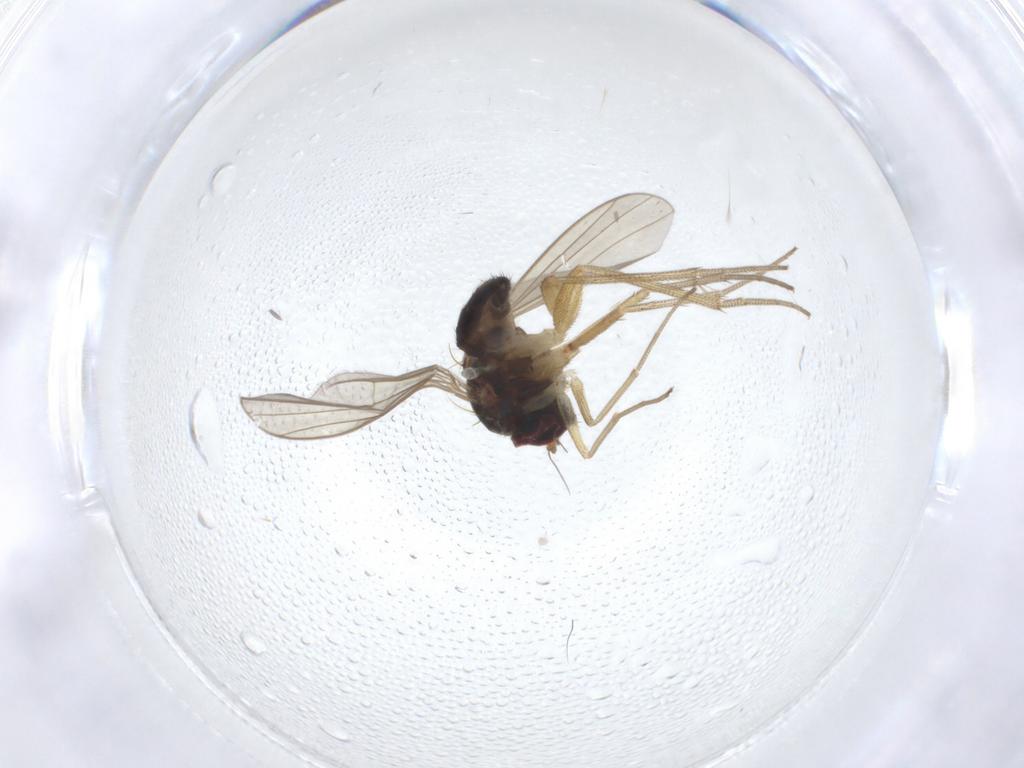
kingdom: Animalia
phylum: Arthropoda
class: Insecta
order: Diptera
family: Dolichopodidae
